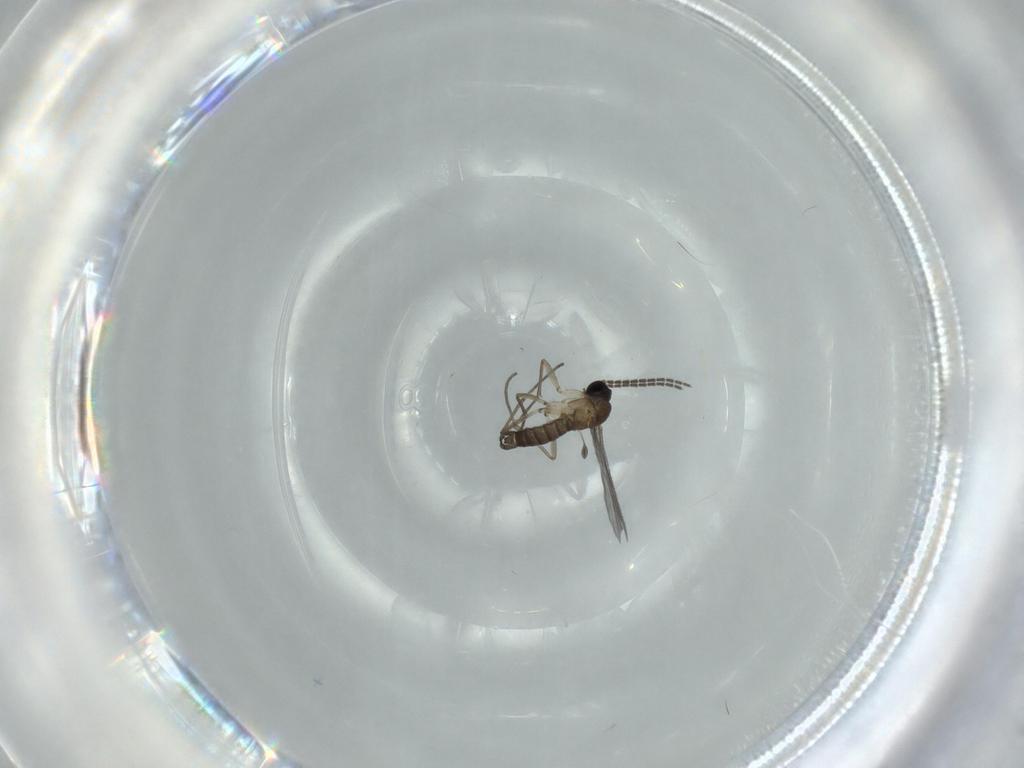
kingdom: Animalia
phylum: Arthropoda
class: Insecta
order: Diptera
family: Sciaridae
